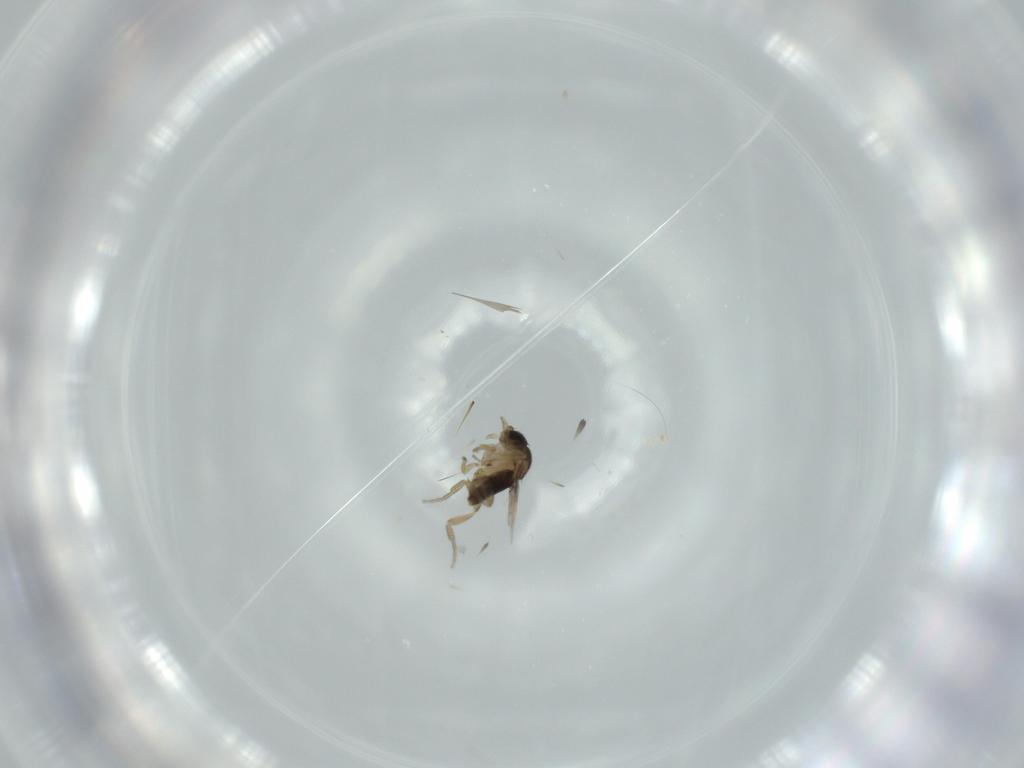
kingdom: Animalia
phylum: Arthropoda
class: Insecta
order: Diptera
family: Phoridae
